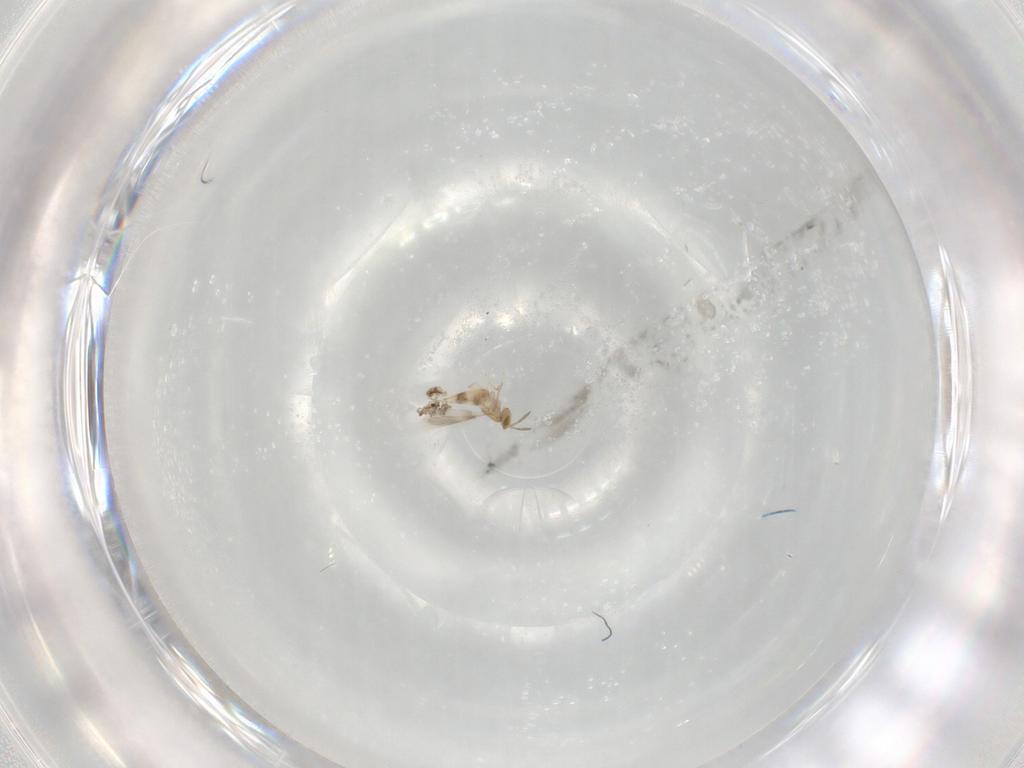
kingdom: Animalia
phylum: Arthropoda
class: Insecta
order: Hymenoptera
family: Aphelinidae
